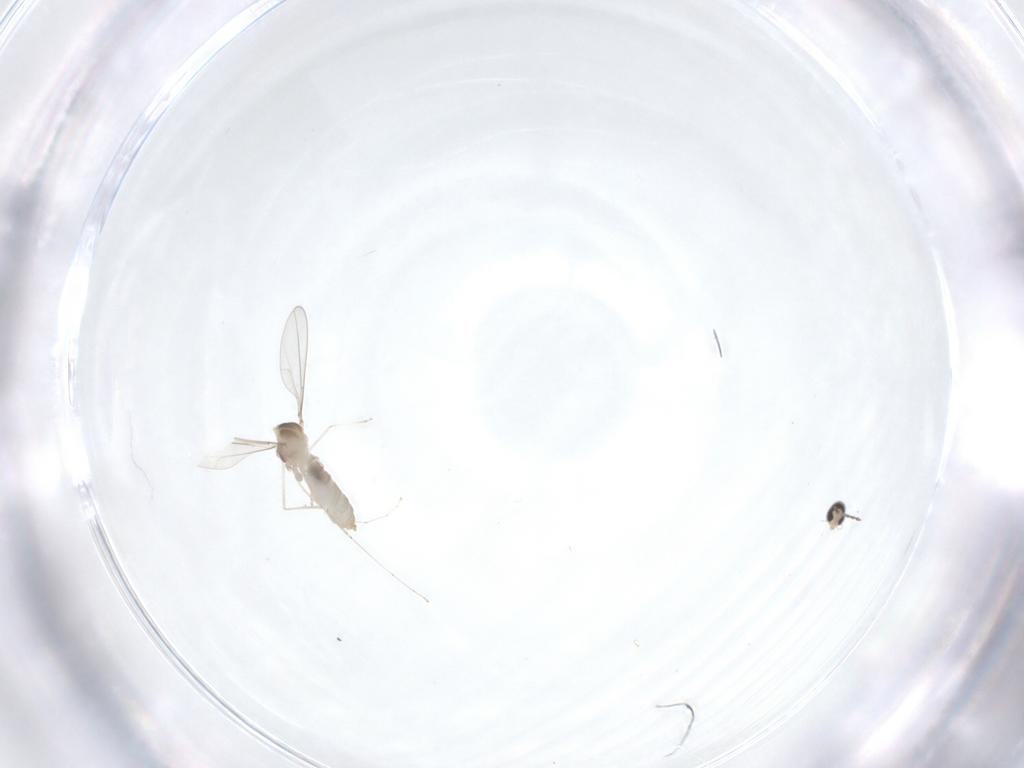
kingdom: Animalia
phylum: Arthropoda
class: Insecta
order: Diptera
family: Cecidomyiidae
